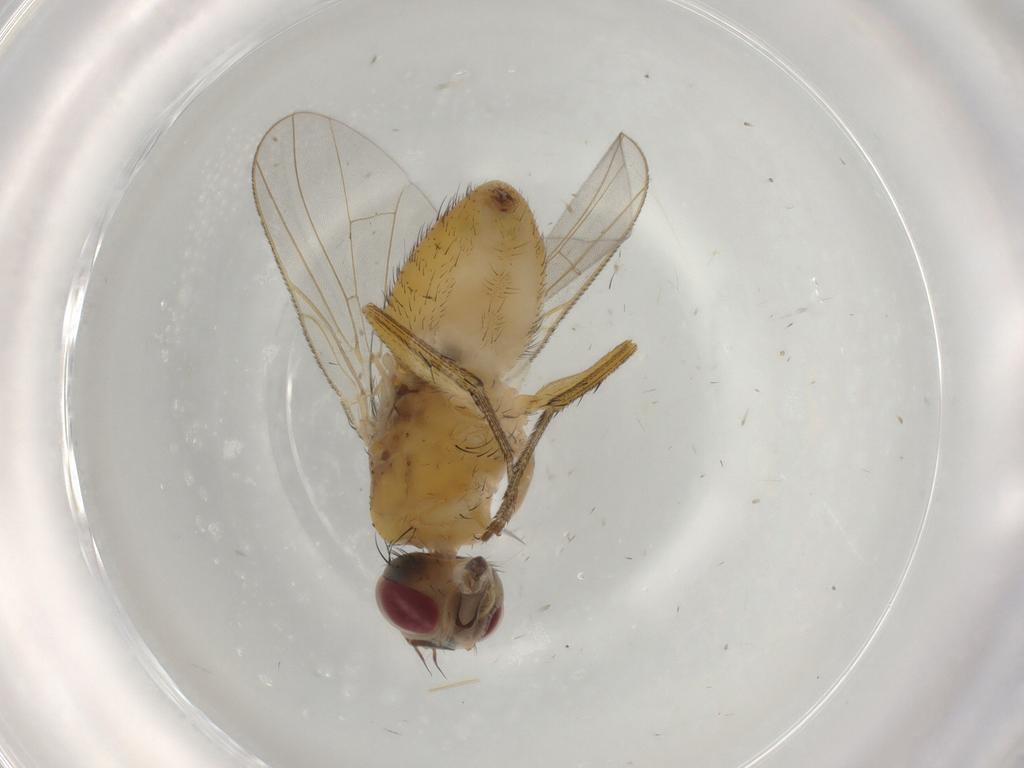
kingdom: Animalia
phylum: Arthropoda
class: Insecta
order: Diptera
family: Muscidae
